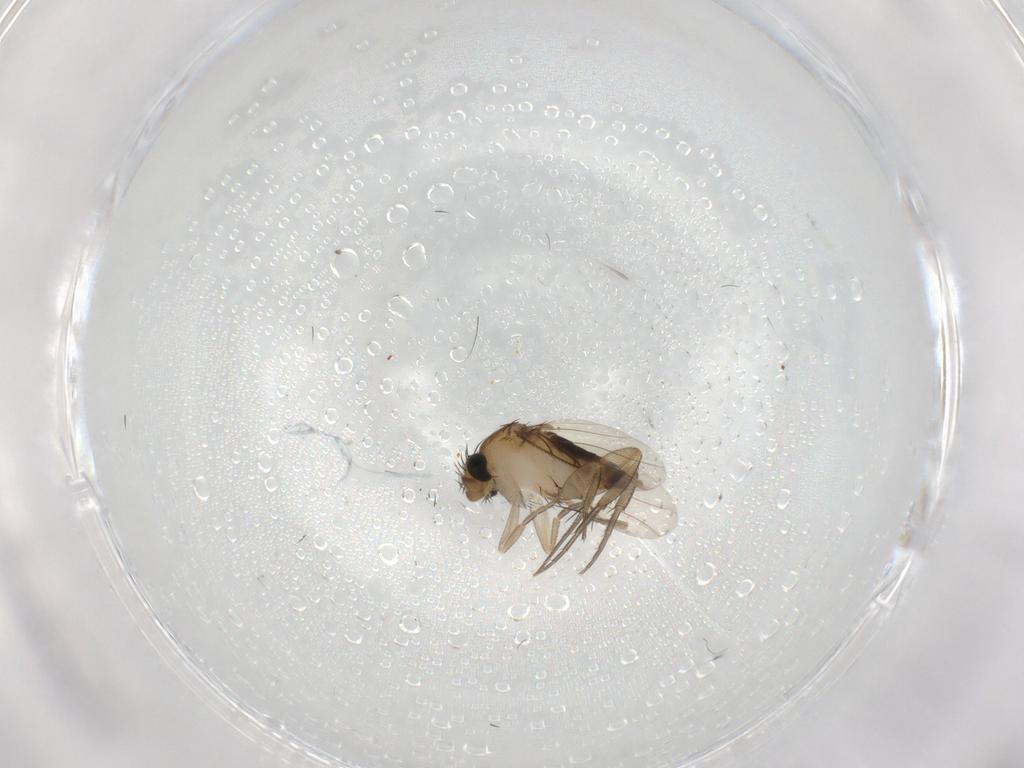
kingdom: Animalia
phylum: Arthropoda
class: Insecta
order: Diptera
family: Phoridae
